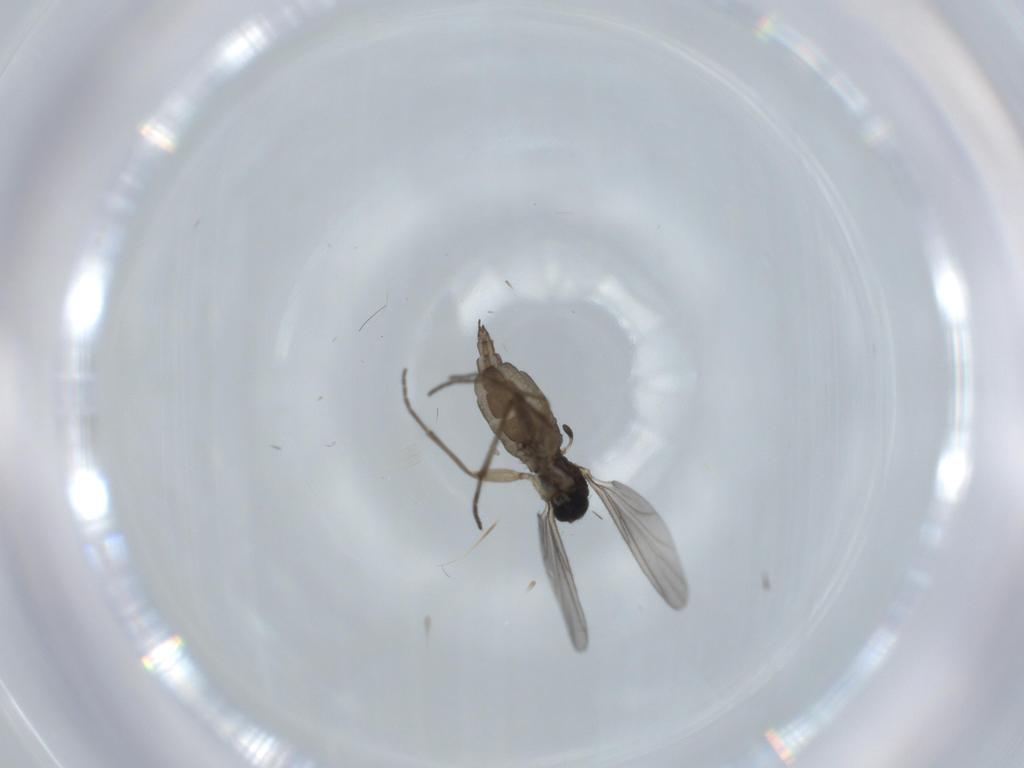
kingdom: Animalia
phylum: Arthropoda
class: Insecta
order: Diptera
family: Sciaridae
